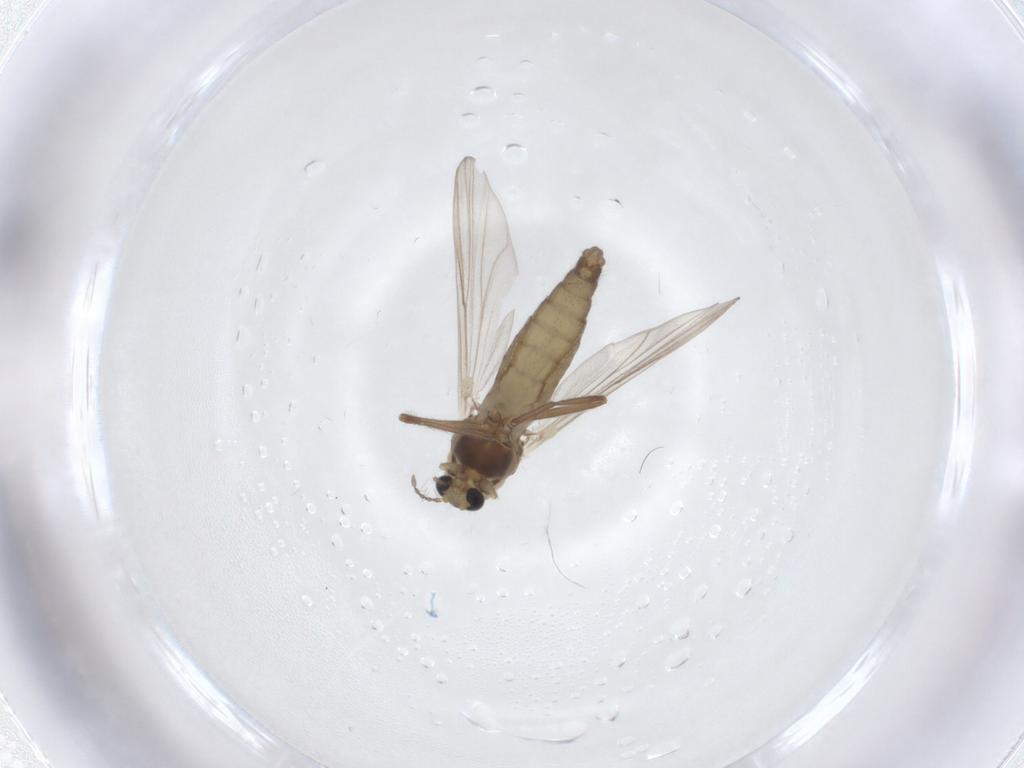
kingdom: Animalia
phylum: Arthropoda
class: Insecta
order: Diptera
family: Chironomidae
